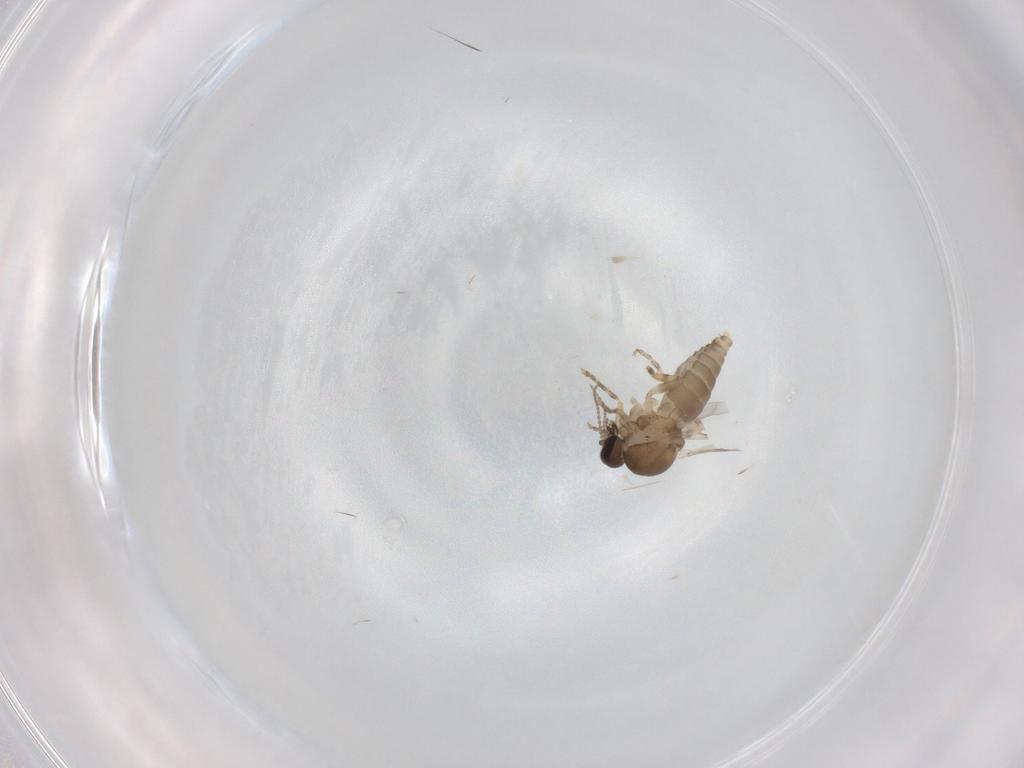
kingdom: Animalia
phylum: Arthropoda
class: Insecta
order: Diptera
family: Ceratopogonidae
